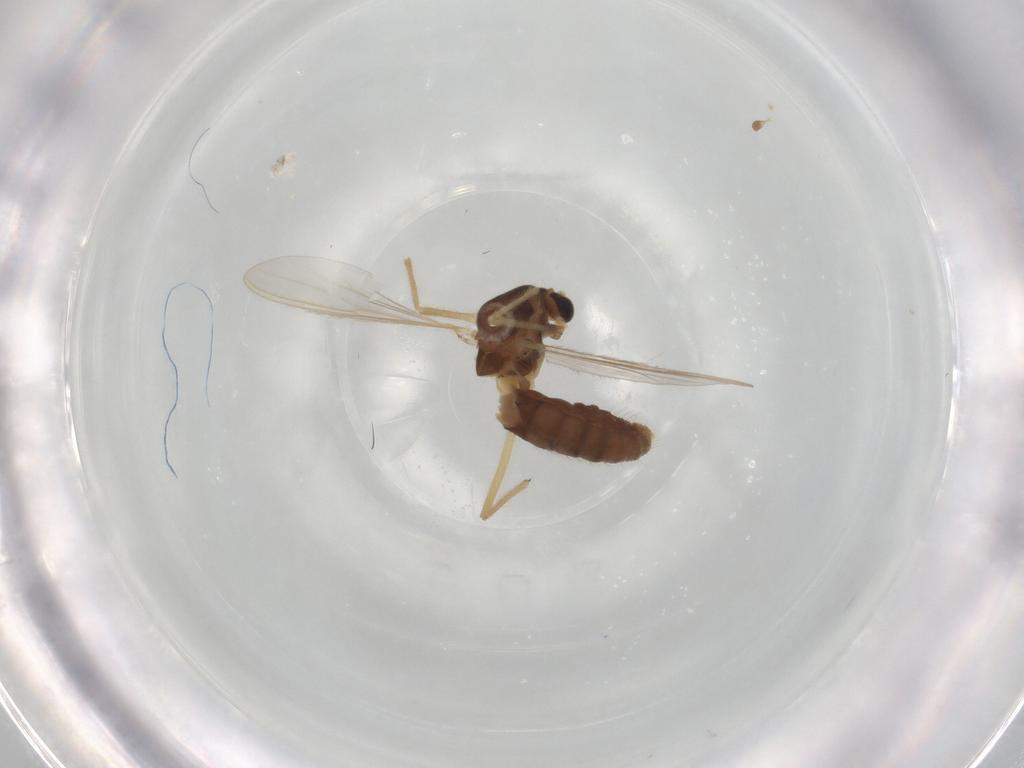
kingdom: Animalia
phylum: Arthropoda
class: Insecta
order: Diptera
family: Chironomidae
